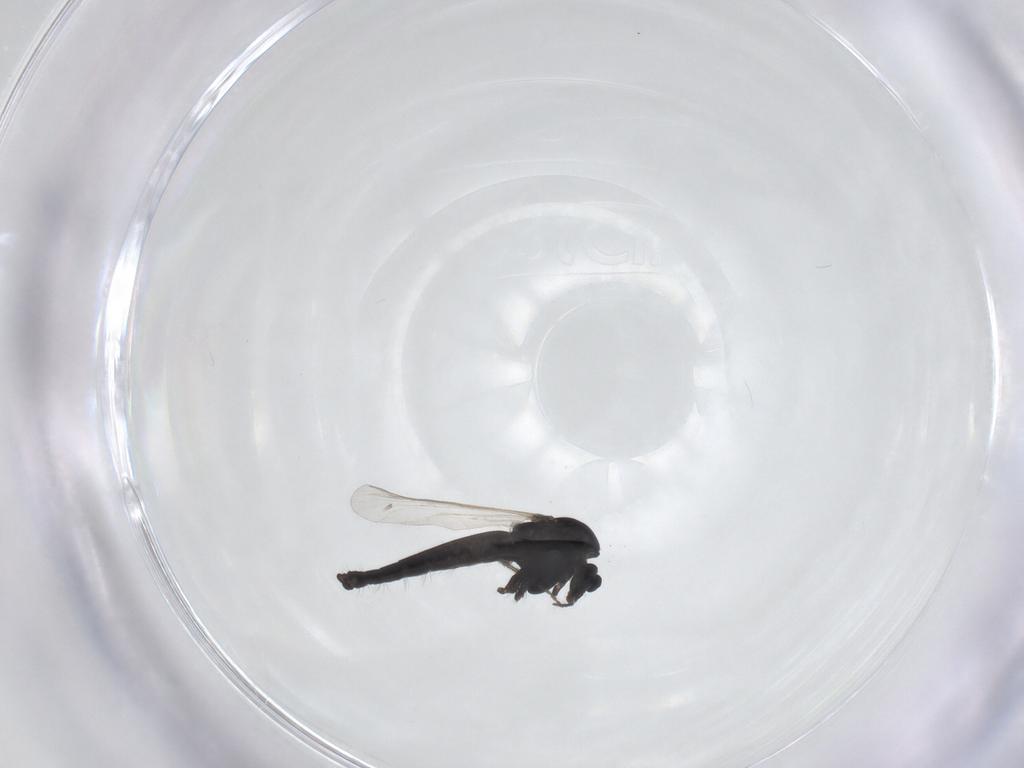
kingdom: Animalia
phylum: Arthropoda
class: Insecta
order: Diptera
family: Chironomidae
